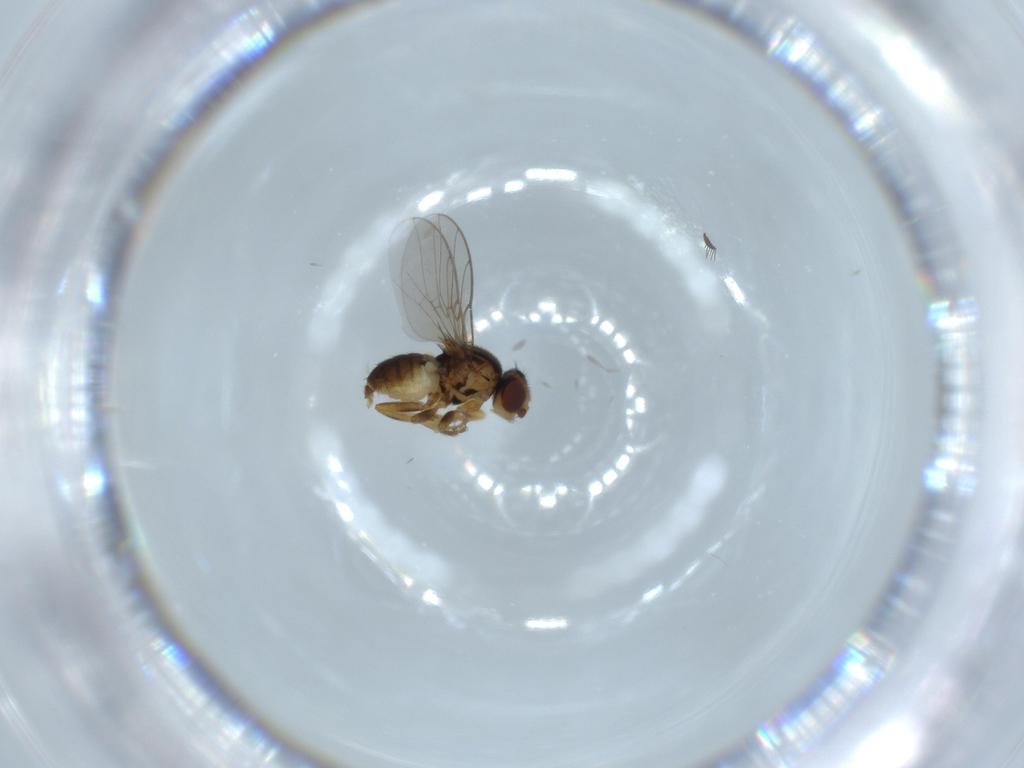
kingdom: Animalia
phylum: Arthropoda
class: Insecta
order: Diptera
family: Chloropidae
